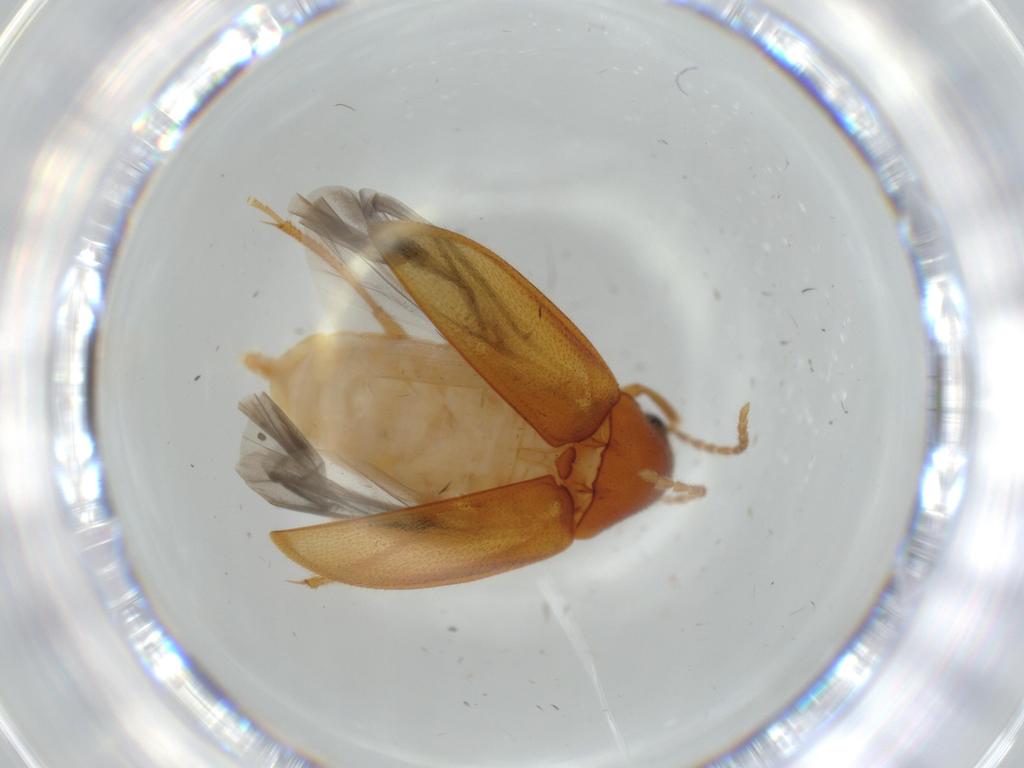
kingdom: Animalia
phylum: Arthropoda
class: Insecta
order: Coleoptera
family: Ptilodactylidae
